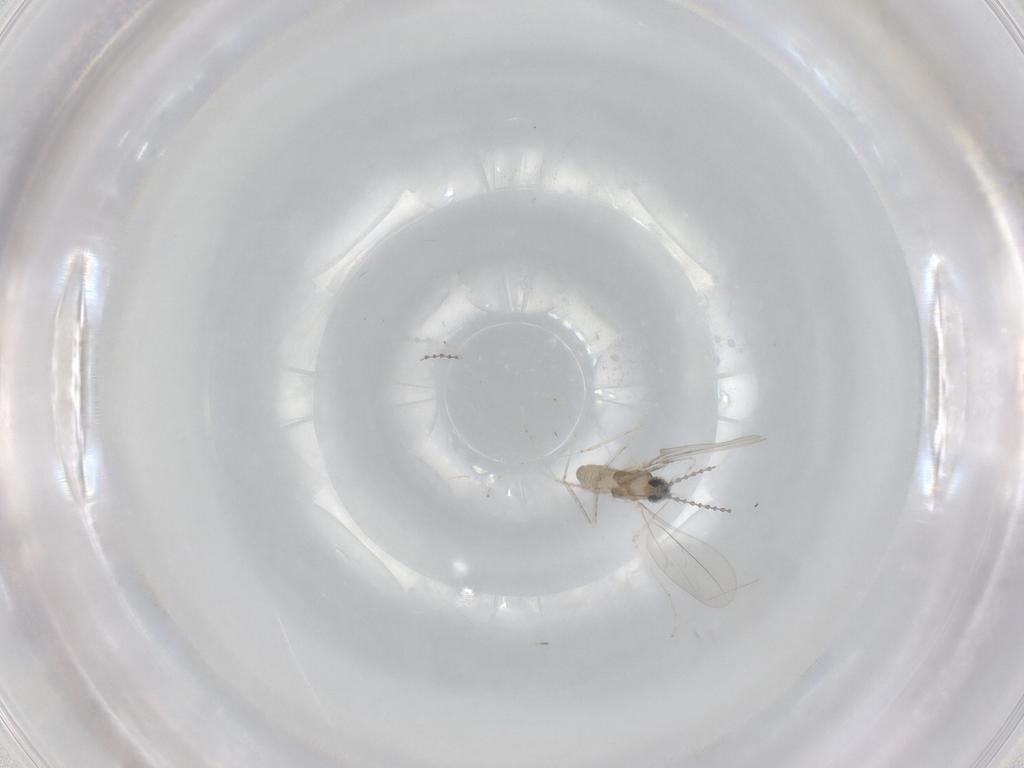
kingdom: Animalia
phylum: Arthropoda
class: Insecta
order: Diptera
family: Cecidomyiidae
